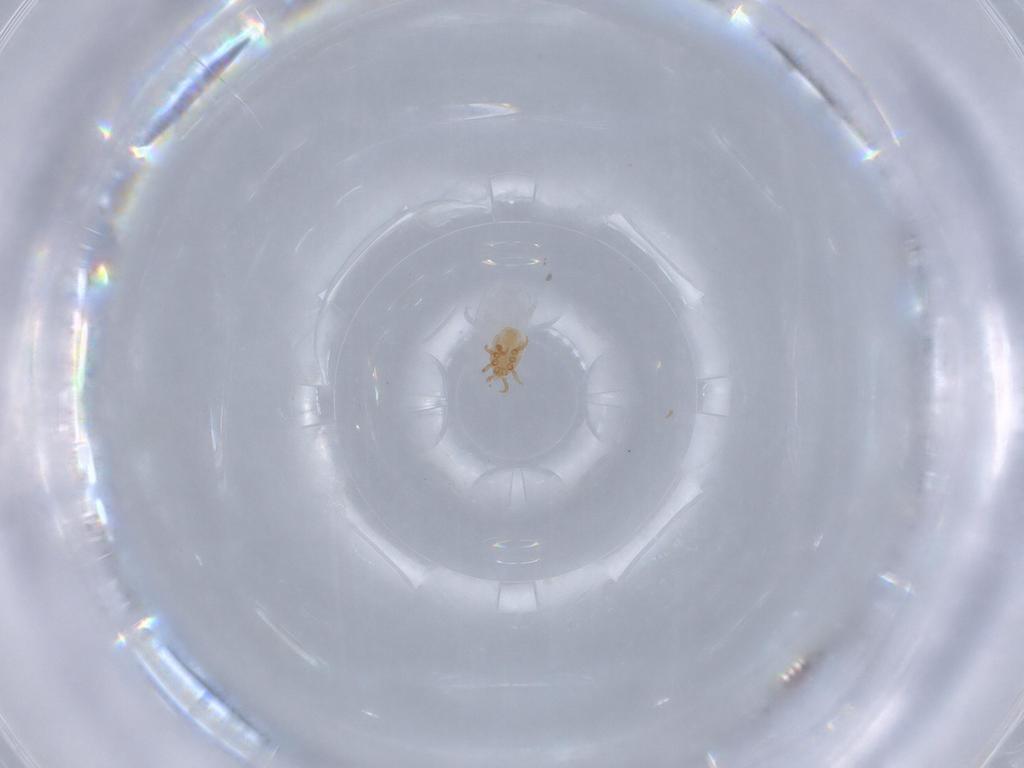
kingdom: Animalia
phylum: Arthropoda
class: Arachnida
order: Mesostigmata
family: Dinychidae
